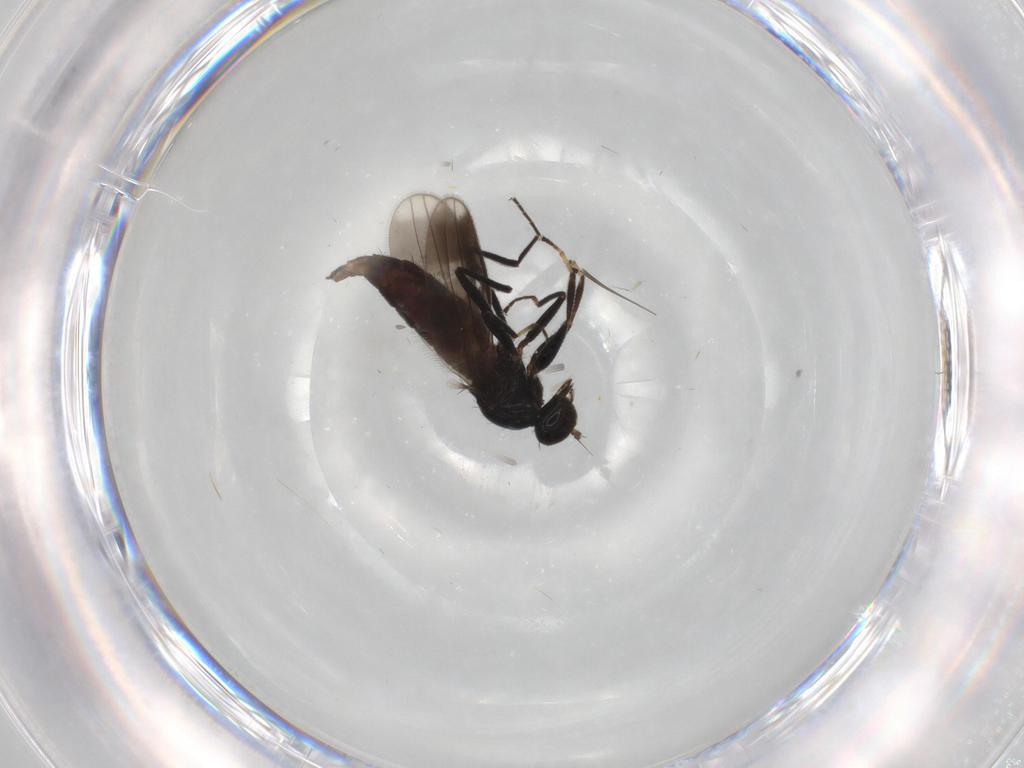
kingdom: Animalia
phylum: Arthropoda
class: Insecta
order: Diptera
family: Hybotidae
